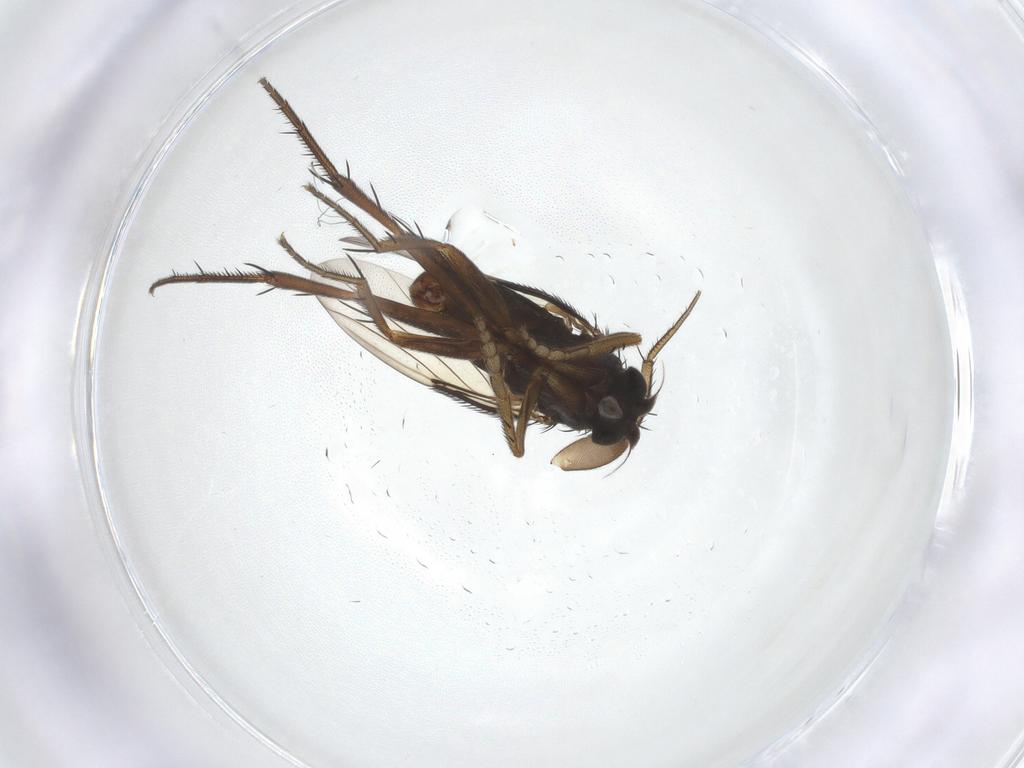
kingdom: Animalia
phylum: Arthropoda
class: Insecta
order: Diptera
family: Phoridae
